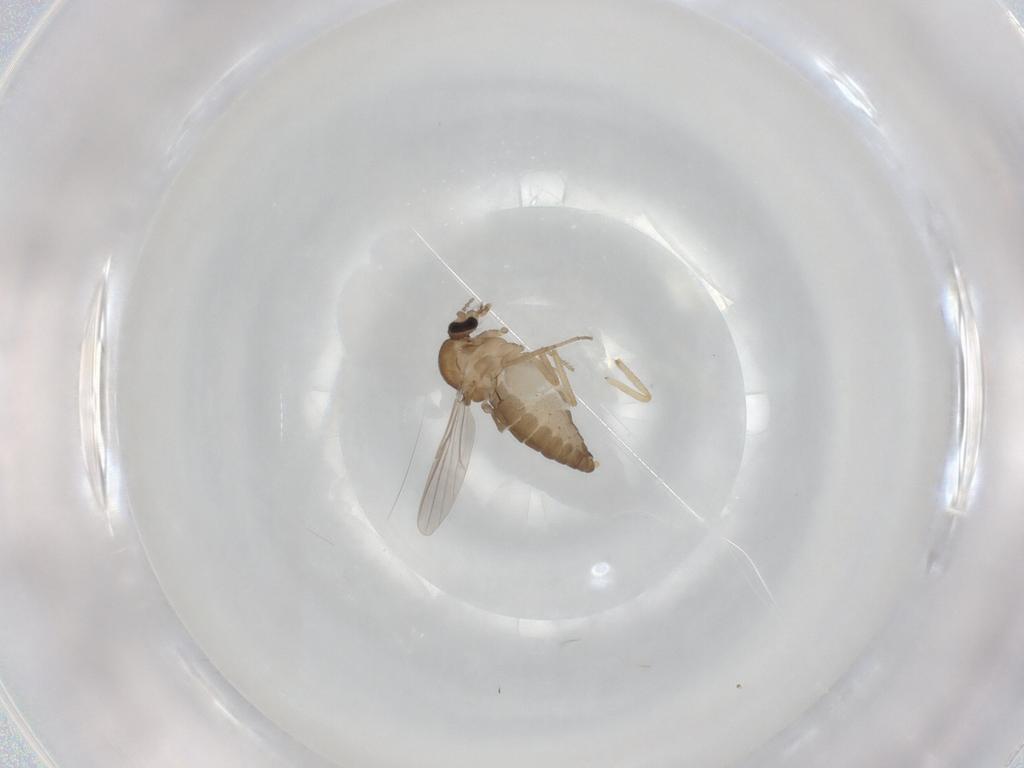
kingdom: Animalia
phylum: Arthropoda
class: Insecta
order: Diptera
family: Ceratopogonidae
